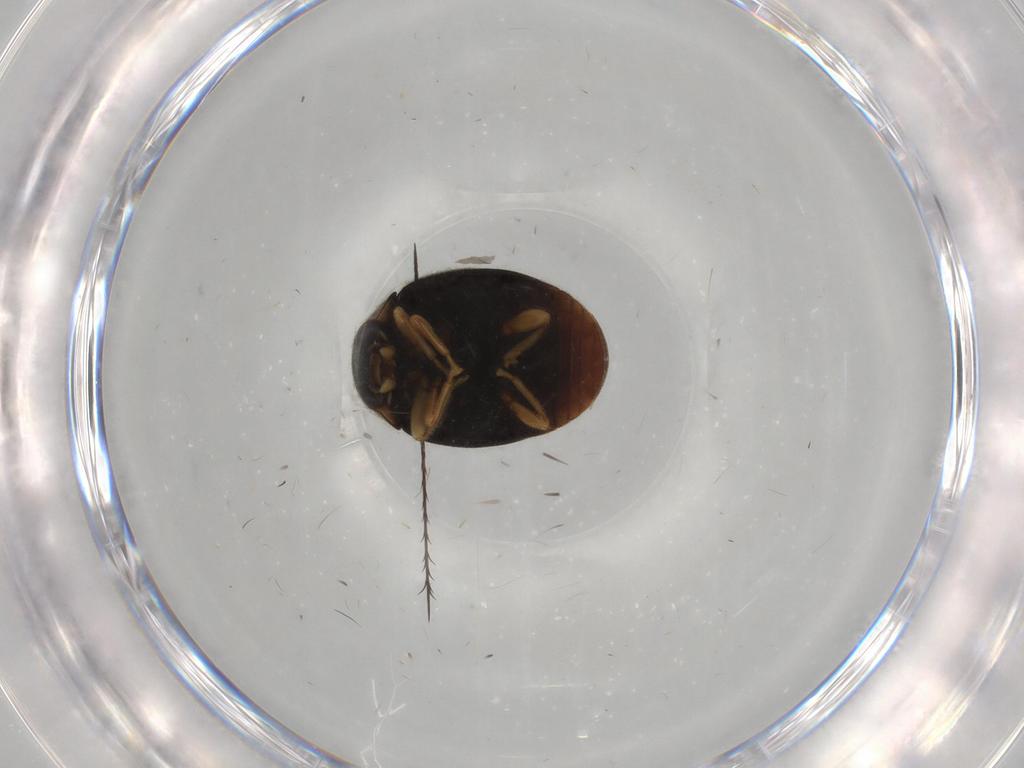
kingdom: Animalia
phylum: Arthropoda
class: Insecta
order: Coleoptera
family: Coccinellidae
